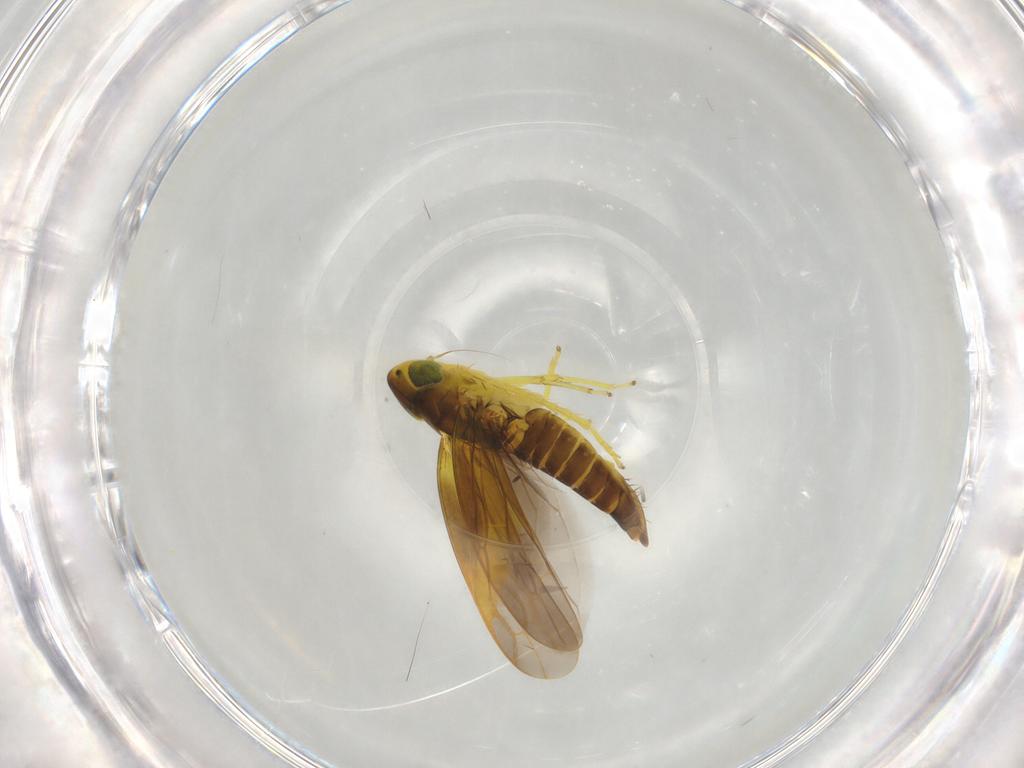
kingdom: Animalia
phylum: Arthropoda
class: Insecta
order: Hemiptera
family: Cicadellidae
